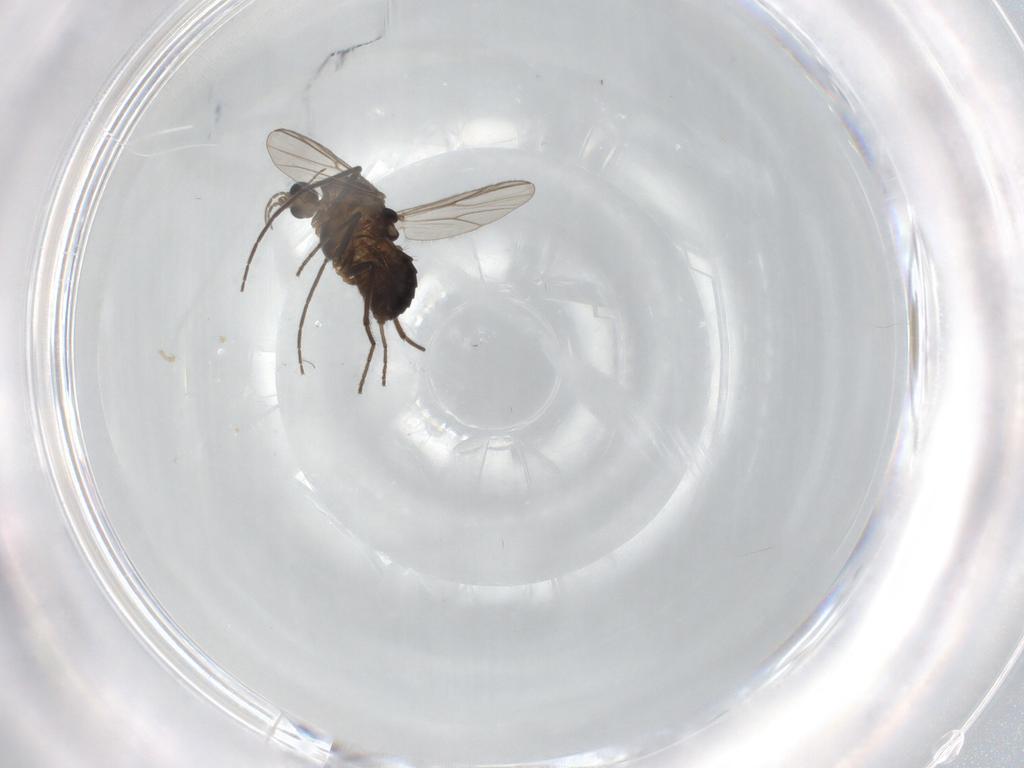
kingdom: Animalia
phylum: Arthropoda
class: Insecta
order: Diptera
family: Chironomidae
